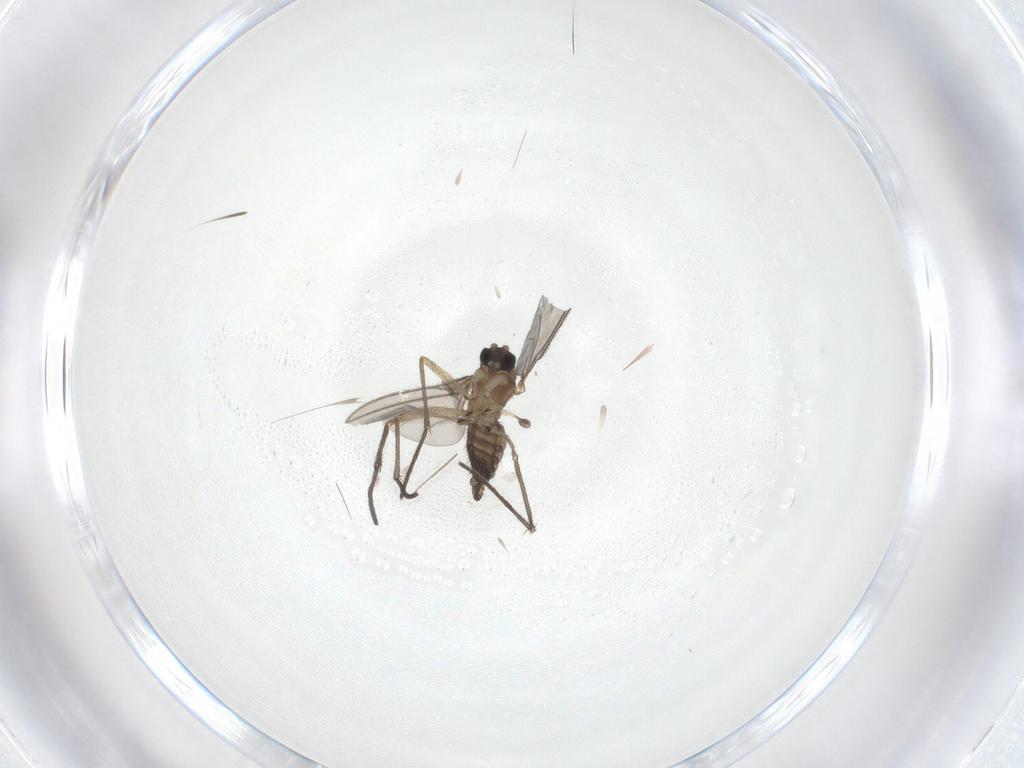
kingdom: Animalia
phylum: Arthropoda
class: Insecta
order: Diptera
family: Sciaridae
